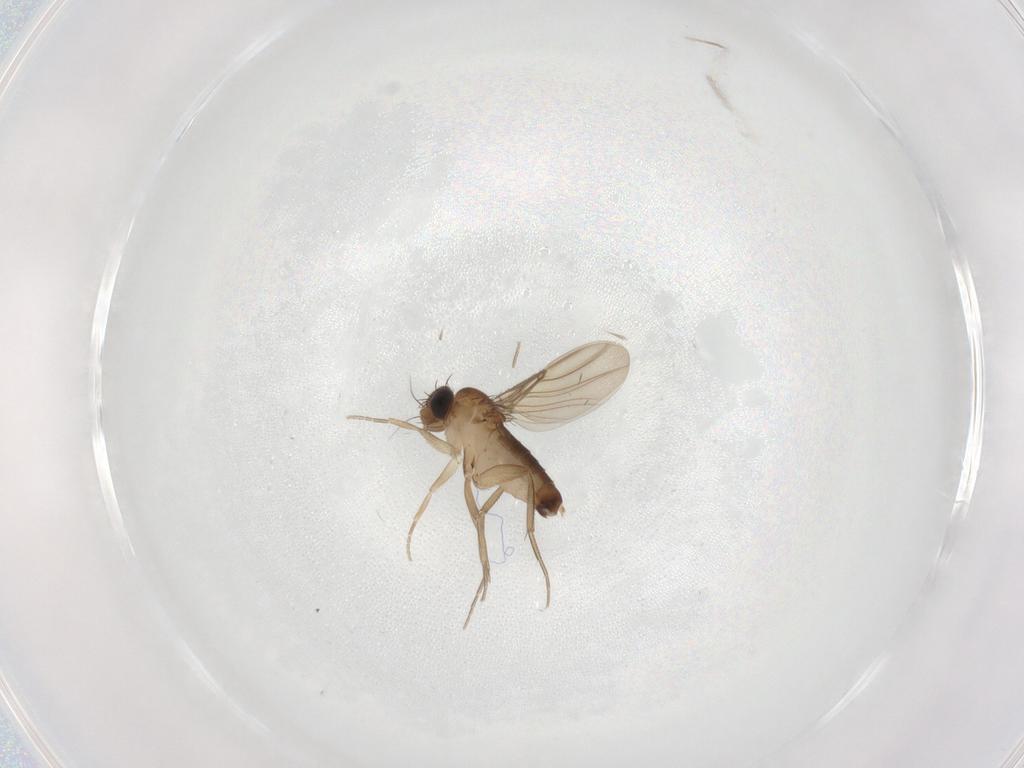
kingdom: Animalia
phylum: Arthropoda
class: Insecta
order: Diptera
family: Phoridae
